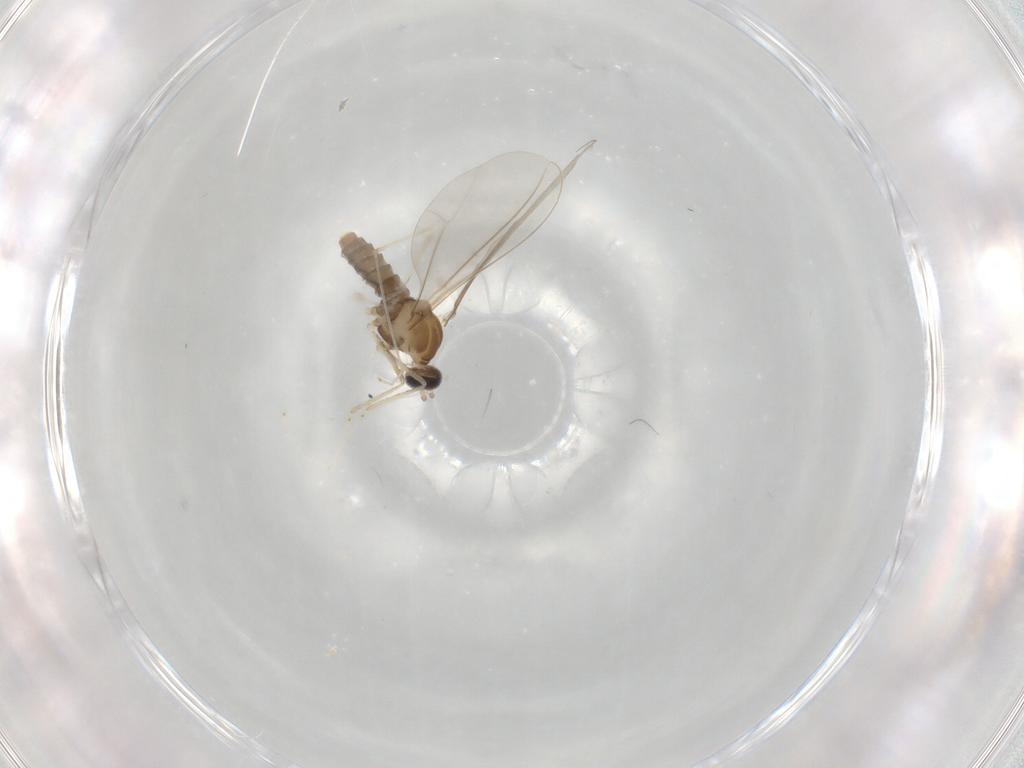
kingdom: Animalia
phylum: Arthropoda
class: Insecta
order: Diptera
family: Cecidomyiidae
